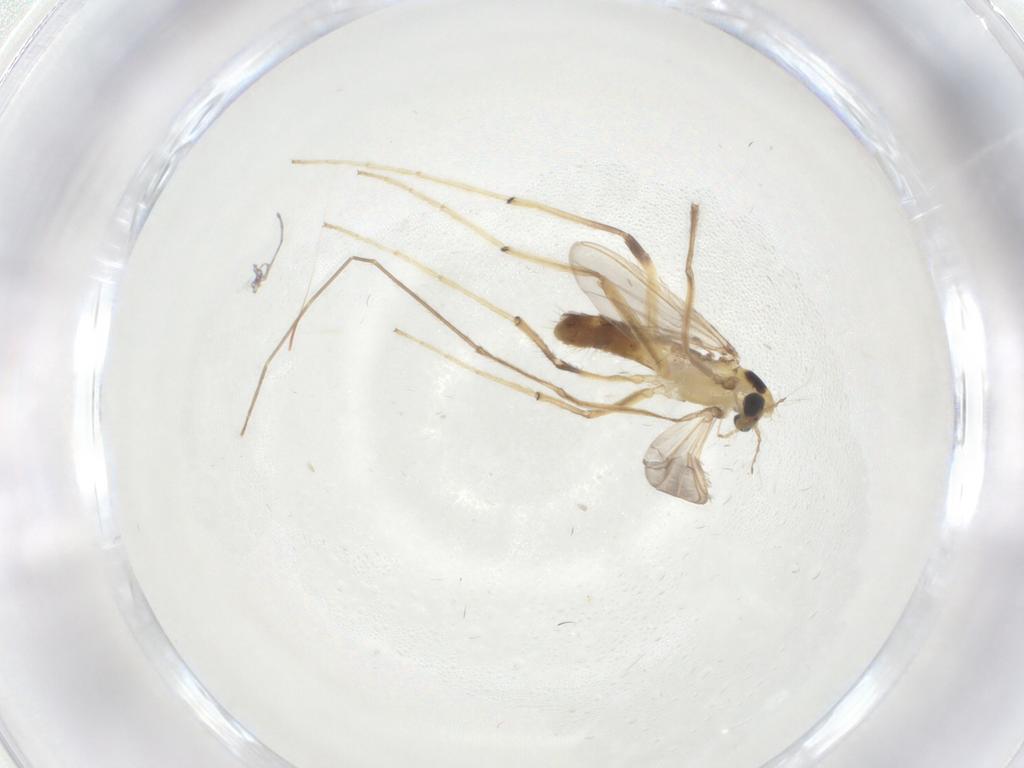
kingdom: Animalia
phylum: Arthropoda
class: Insecta
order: Diptera
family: Chironomidae
